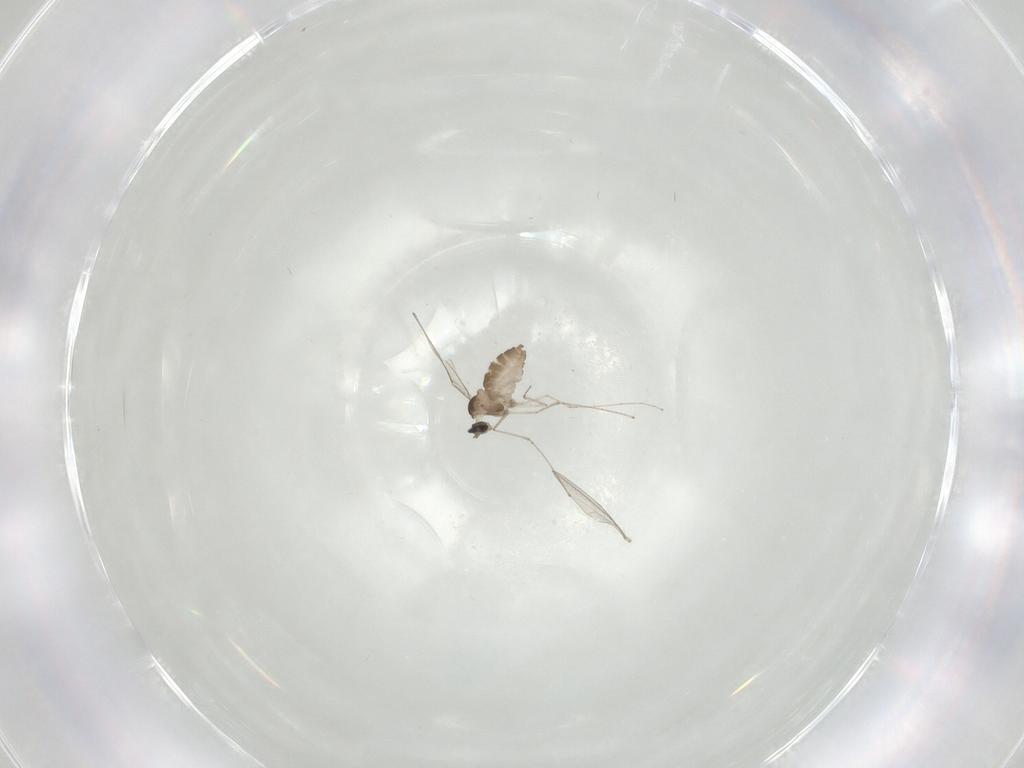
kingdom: Animalia
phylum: Arthropoda
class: Insecta
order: Diptera
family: Cecidomyiidae
